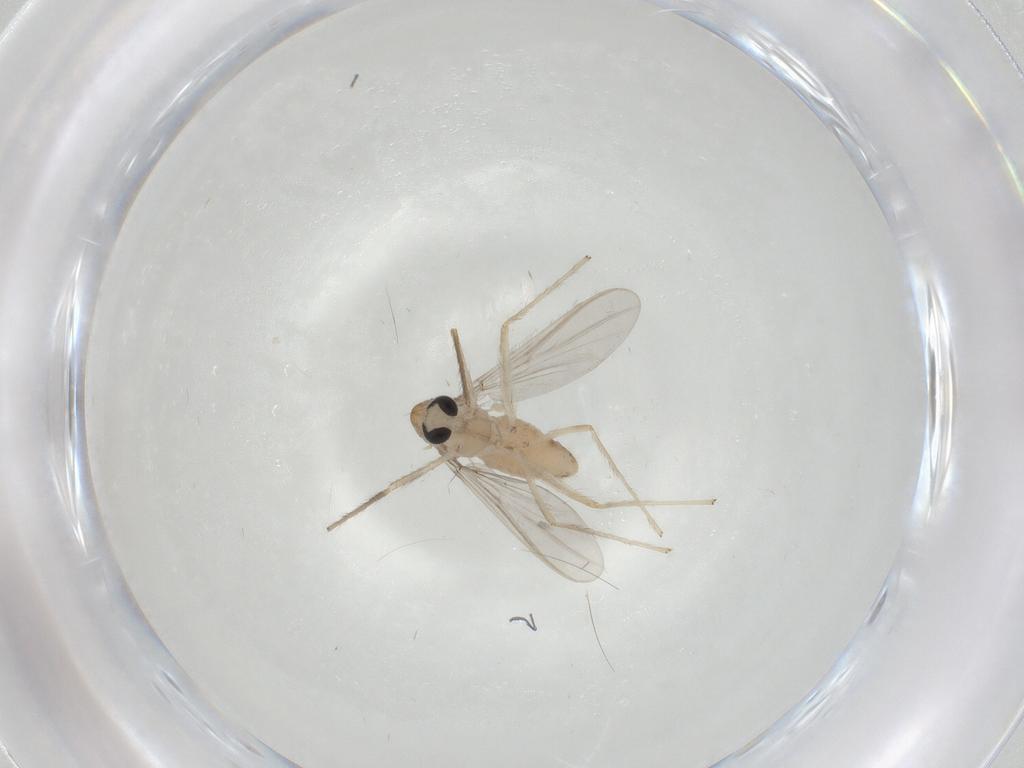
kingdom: Animalia
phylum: Arthropoda
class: Insecta
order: Diptera
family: Chironomidae
